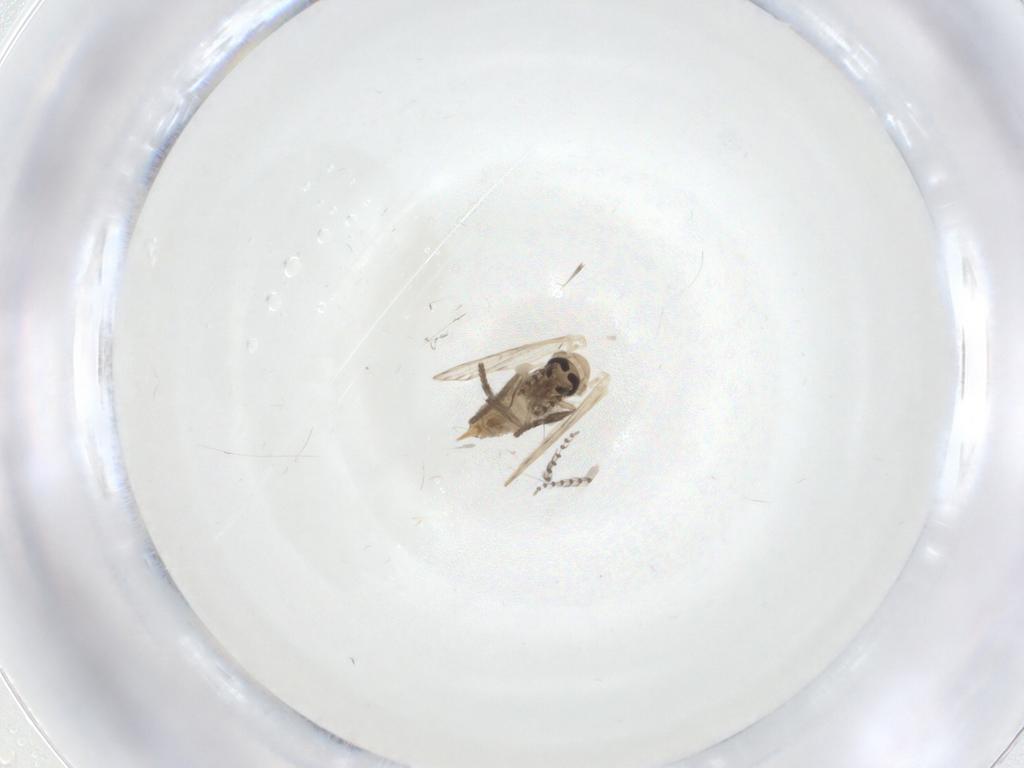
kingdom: Animalia
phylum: Arthropoda
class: Insecta
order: Diptera
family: Psychodidae
